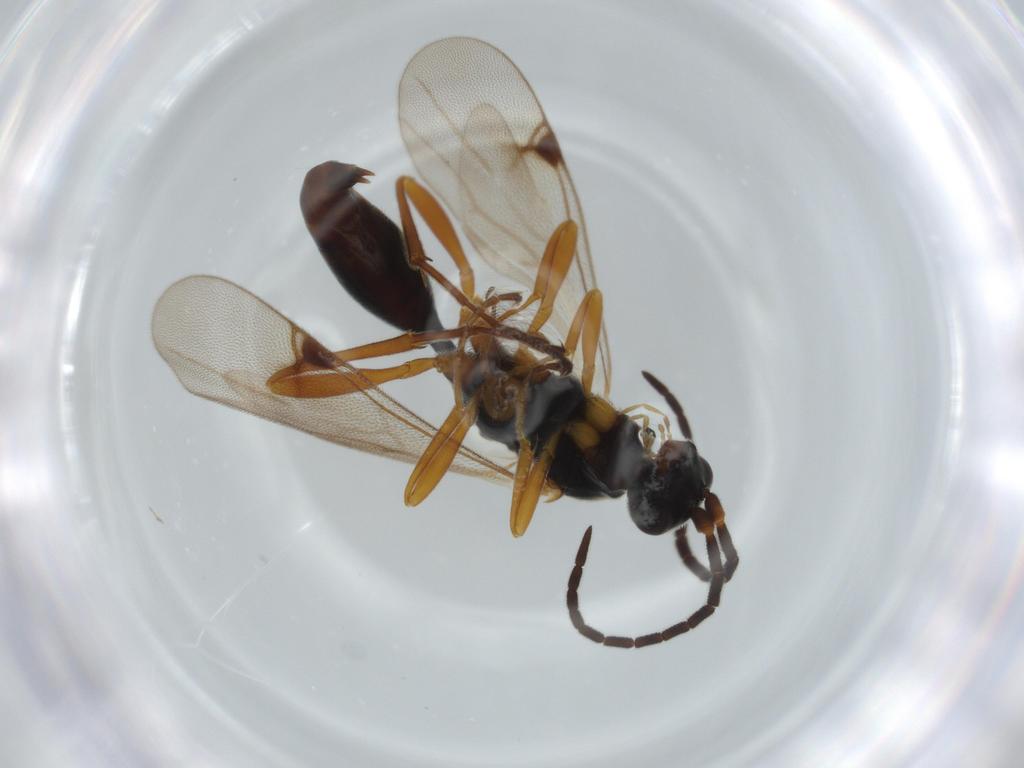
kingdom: Animalia
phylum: Arthropoda
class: Insecta
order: Hymenoptera
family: Proctotrupidae
